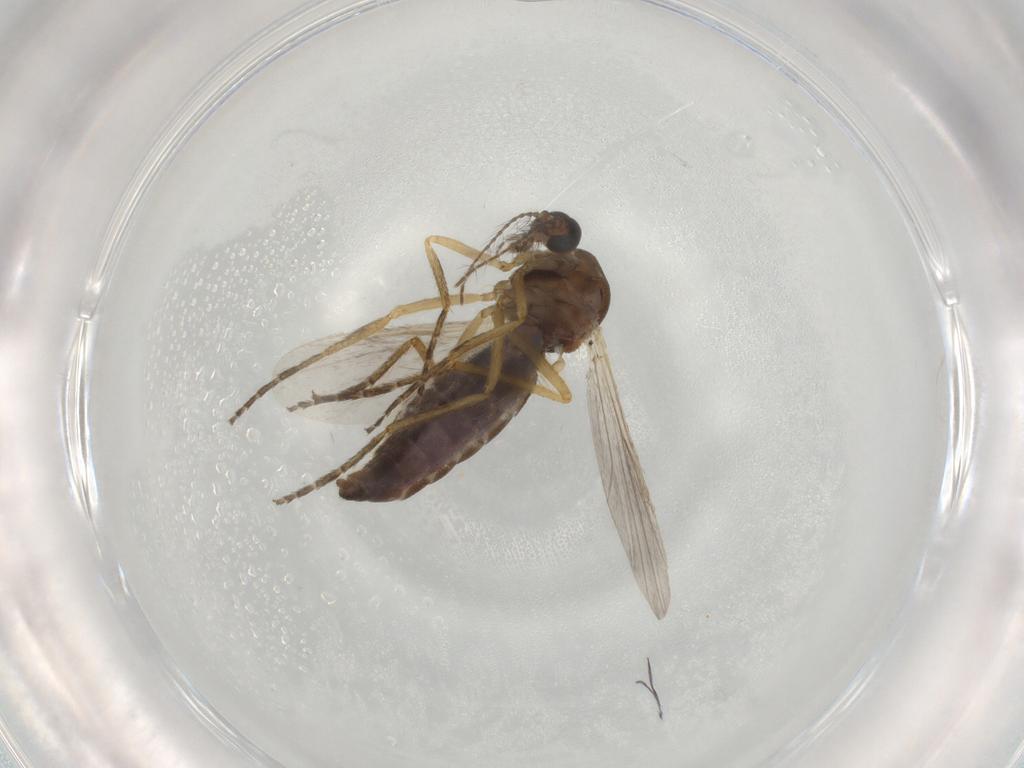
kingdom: Animalia
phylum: Arthropoda
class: Insecta
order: Diptera
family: Ceratopogonidae
